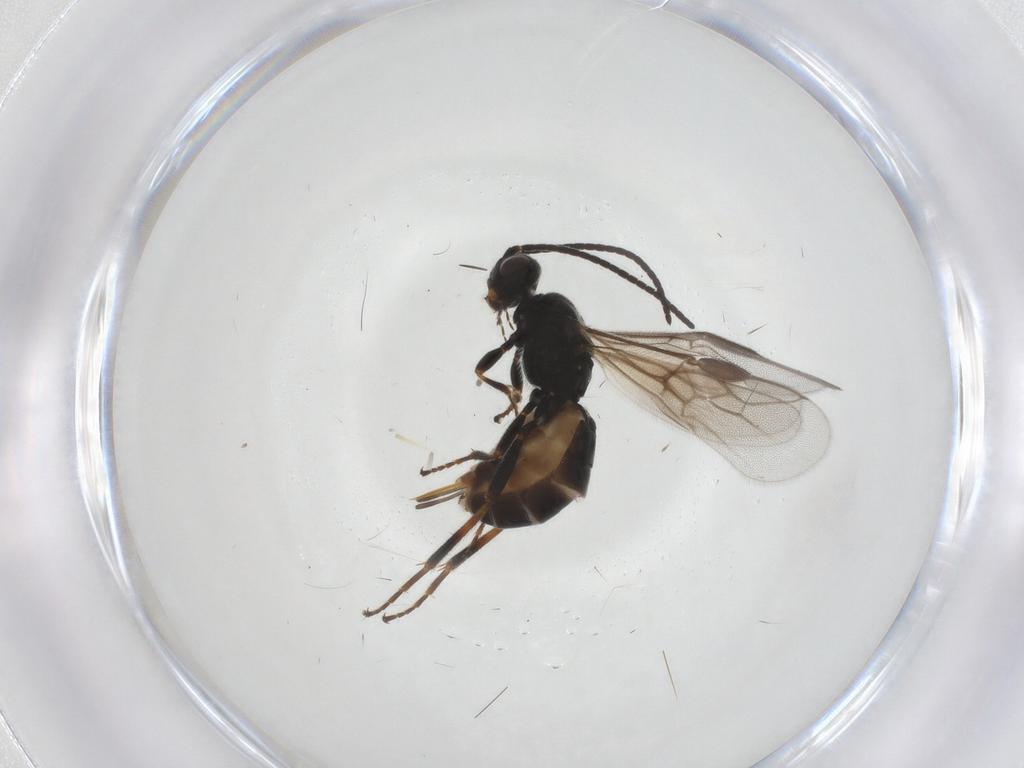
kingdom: Animalia
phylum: Arthropoda
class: Insecta
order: Hymenoptera
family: Braconidae
